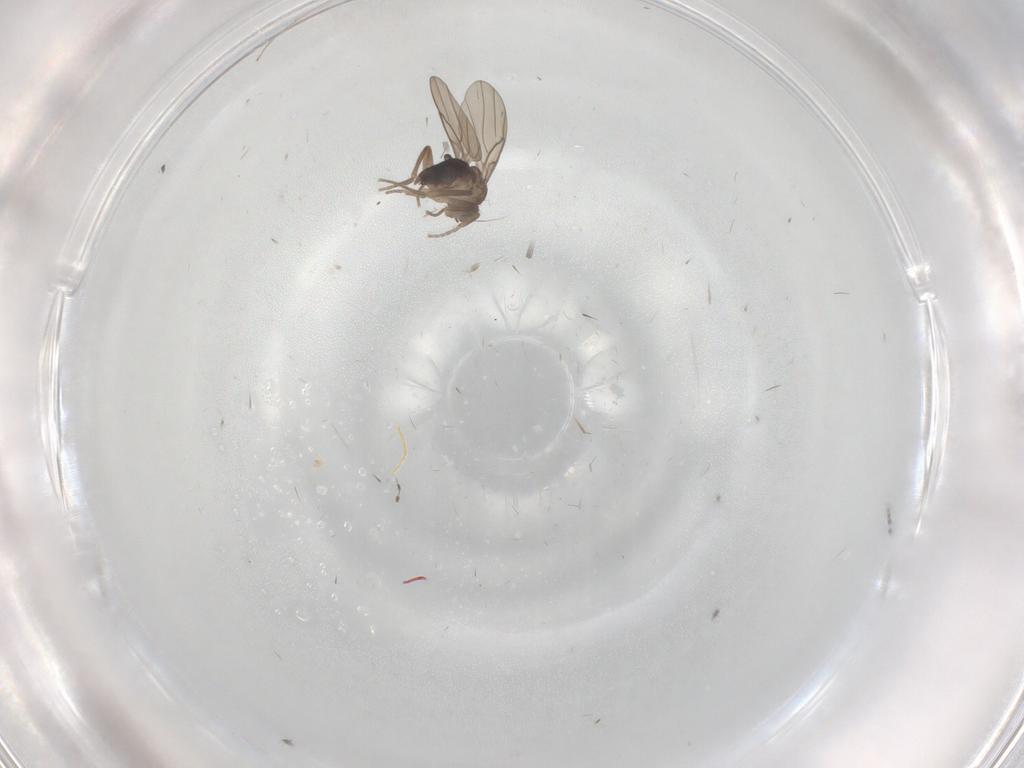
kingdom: Animalia
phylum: Arthropoda
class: Insecta
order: Diptera
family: Phoridae
